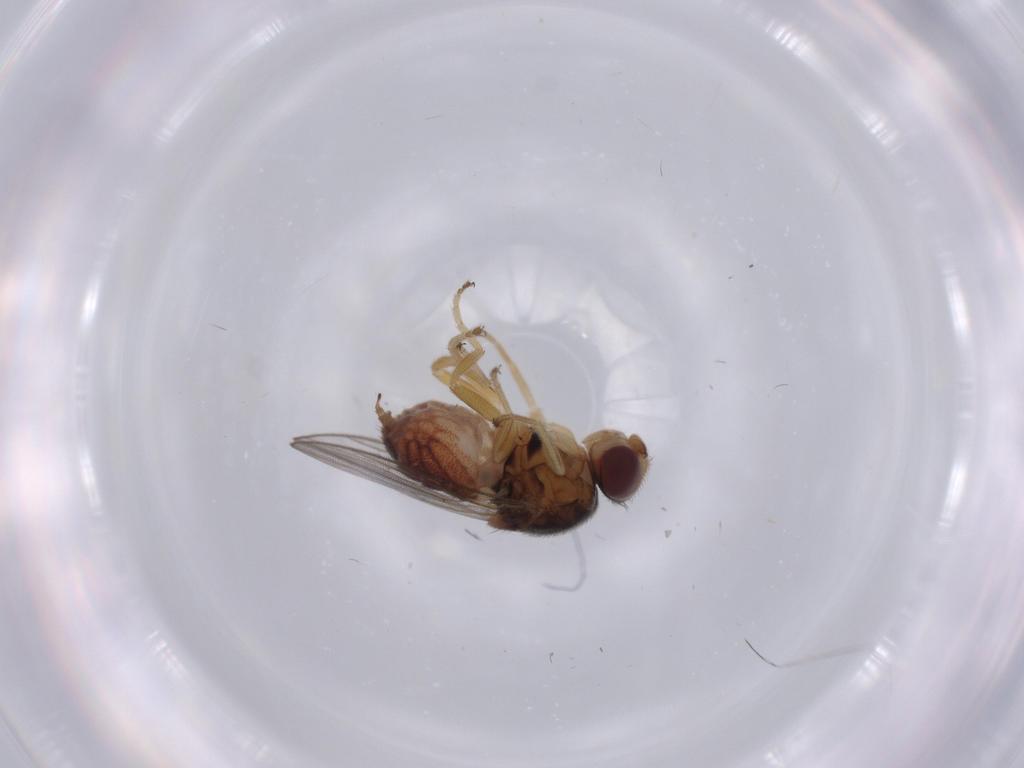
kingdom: Animalia
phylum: Arthropoda
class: Insecta
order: Diptera
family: Chloropidae
